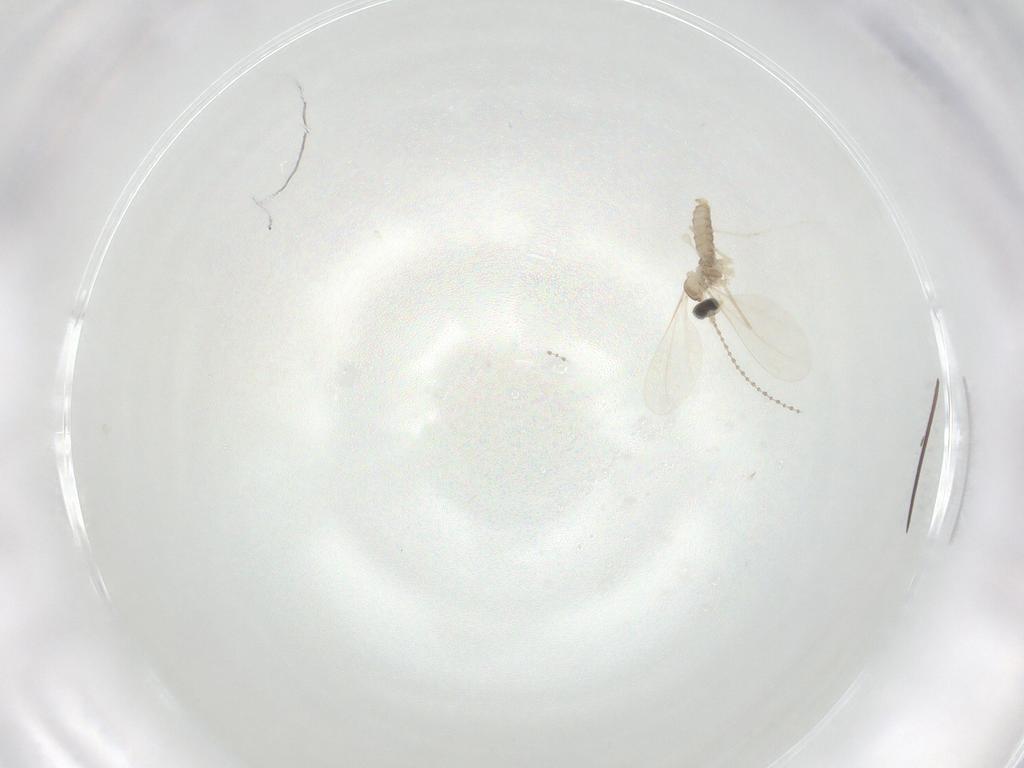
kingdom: Animalia
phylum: Arthropoda
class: Insecta
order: Diptera
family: Cecidomyiidae
